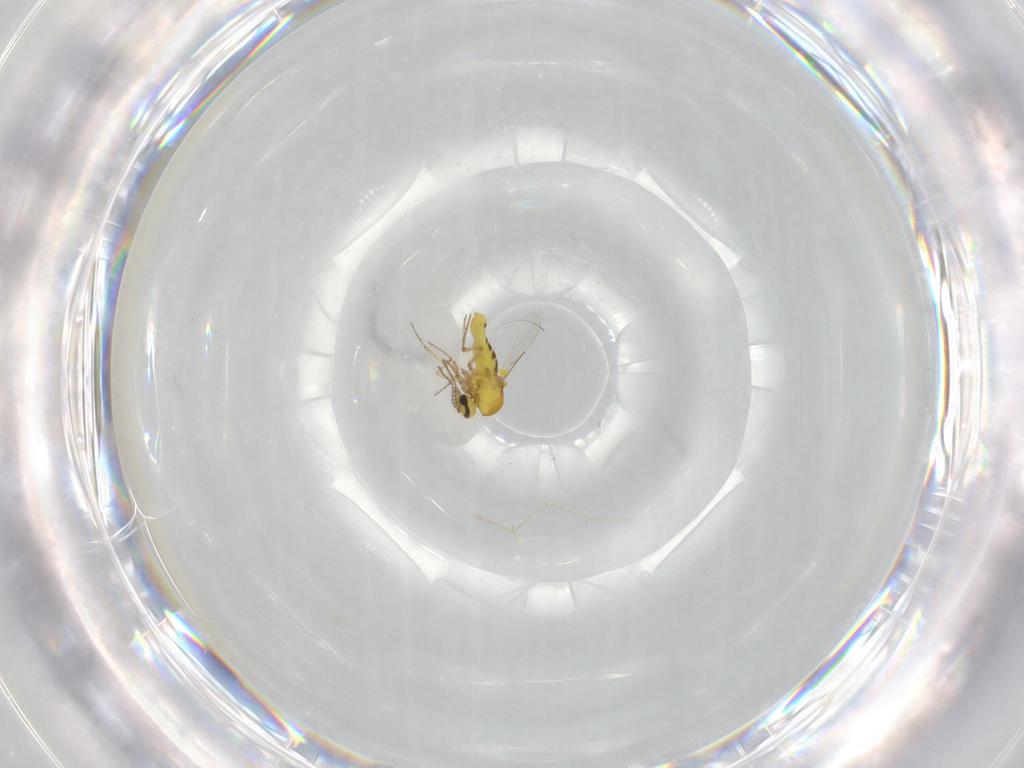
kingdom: Animalia
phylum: Arthropoda
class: Insecta
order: Diptera
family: Ceratopogonidae
